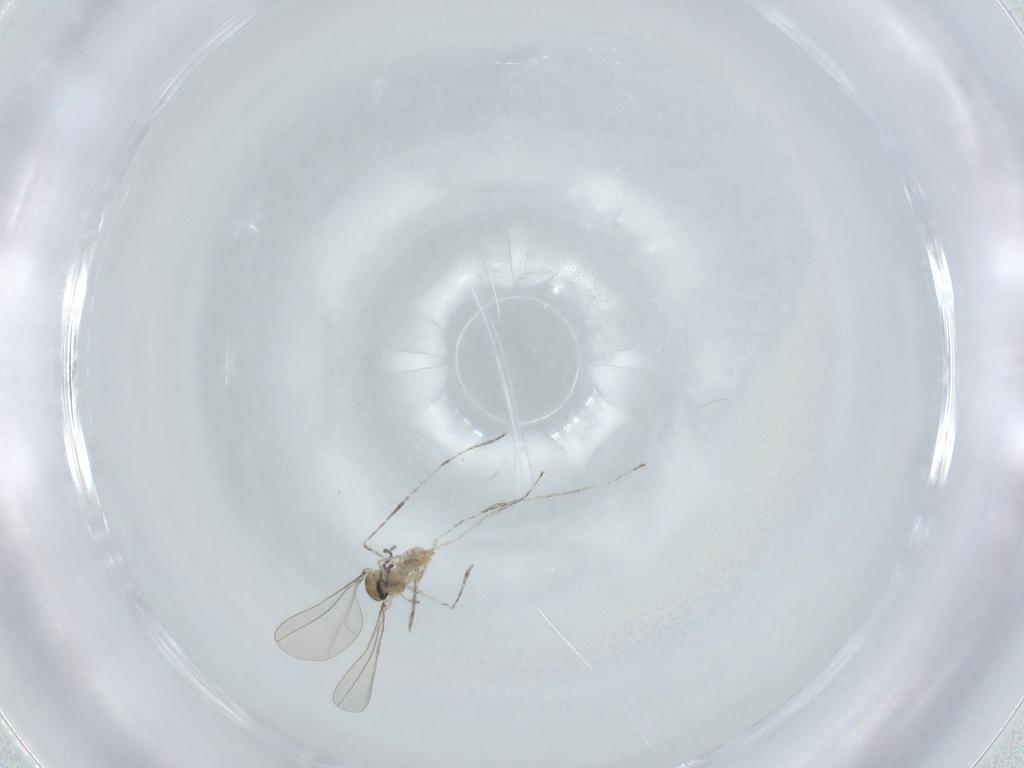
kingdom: Animalia
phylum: Arthropoda
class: Insecta
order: Diptera
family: Cecidomyiidae
